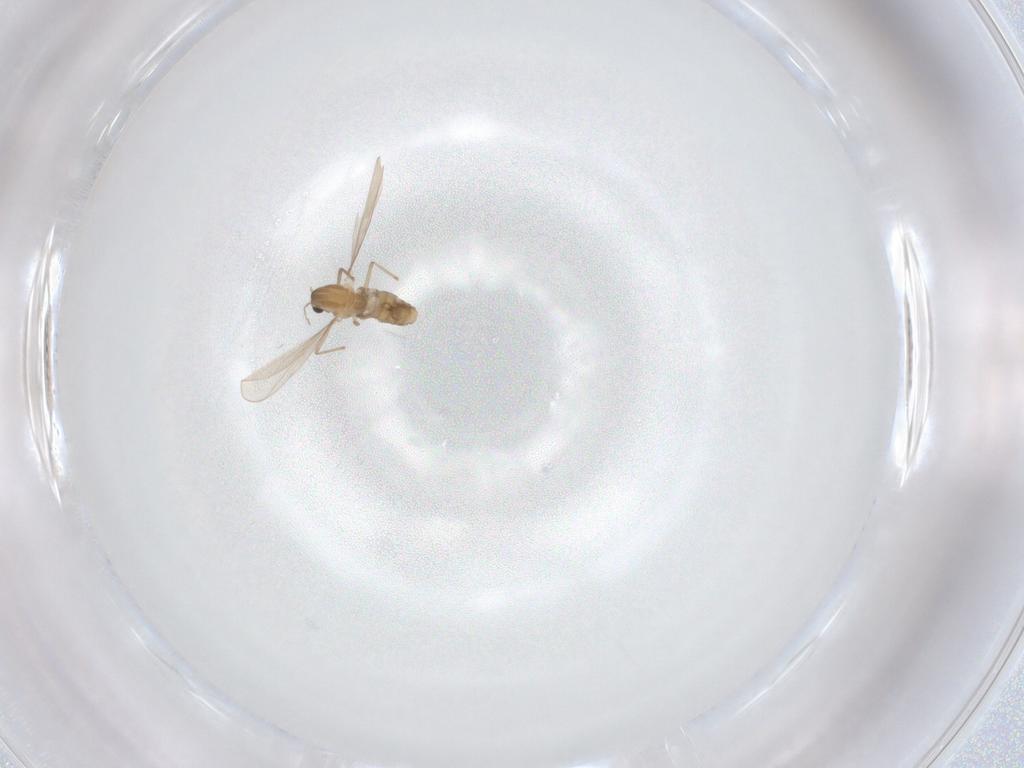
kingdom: Animalia
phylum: Arthropoda
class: Insecta
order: Diptera
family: Chironomidae
